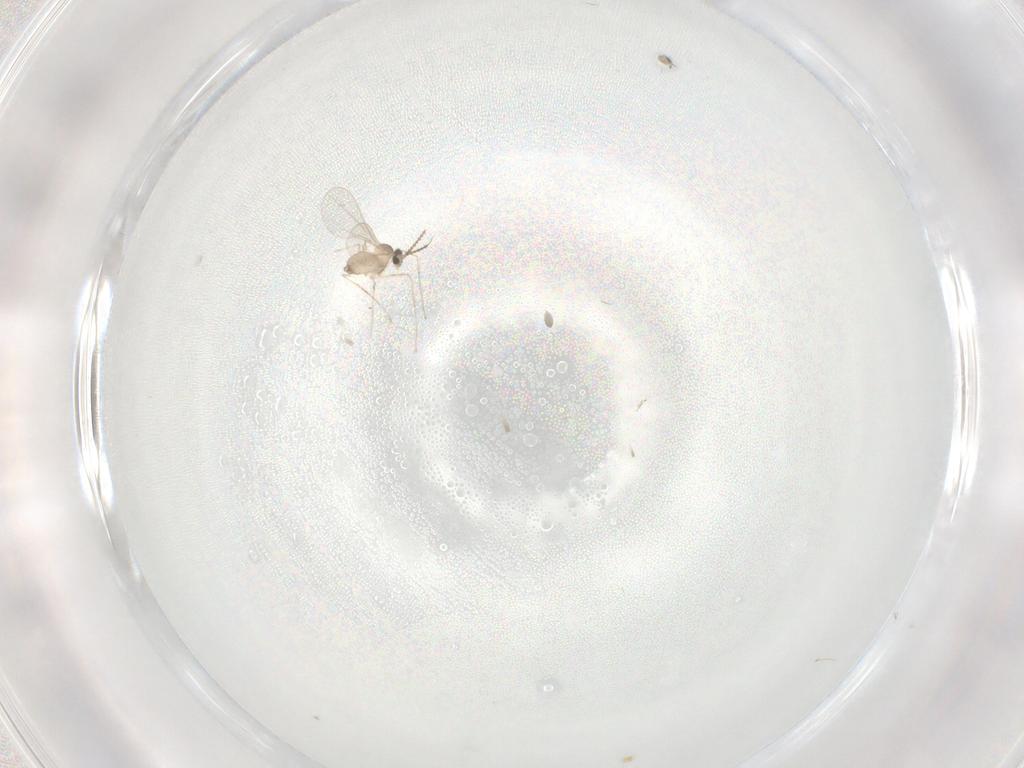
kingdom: Animalia
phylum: Arthropoda
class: Insecta
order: Diptera
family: Cecidomyiidae
